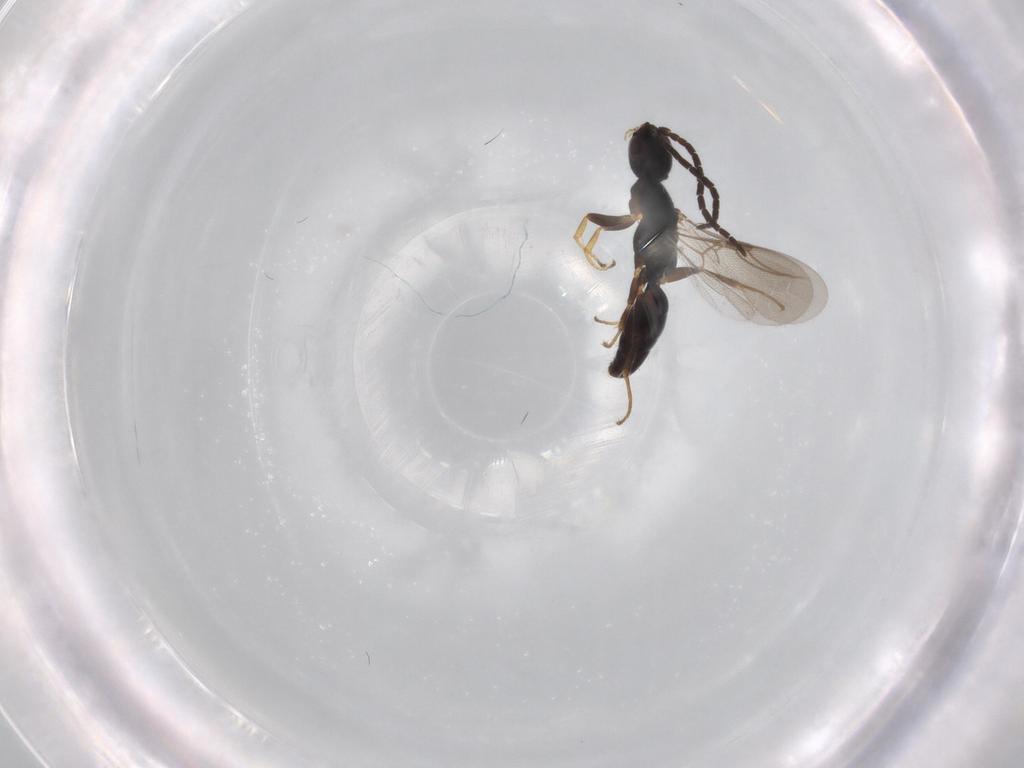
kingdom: Animalia
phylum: Arthropoda
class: Insecta
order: Hymenoptera
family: Bethylidae
